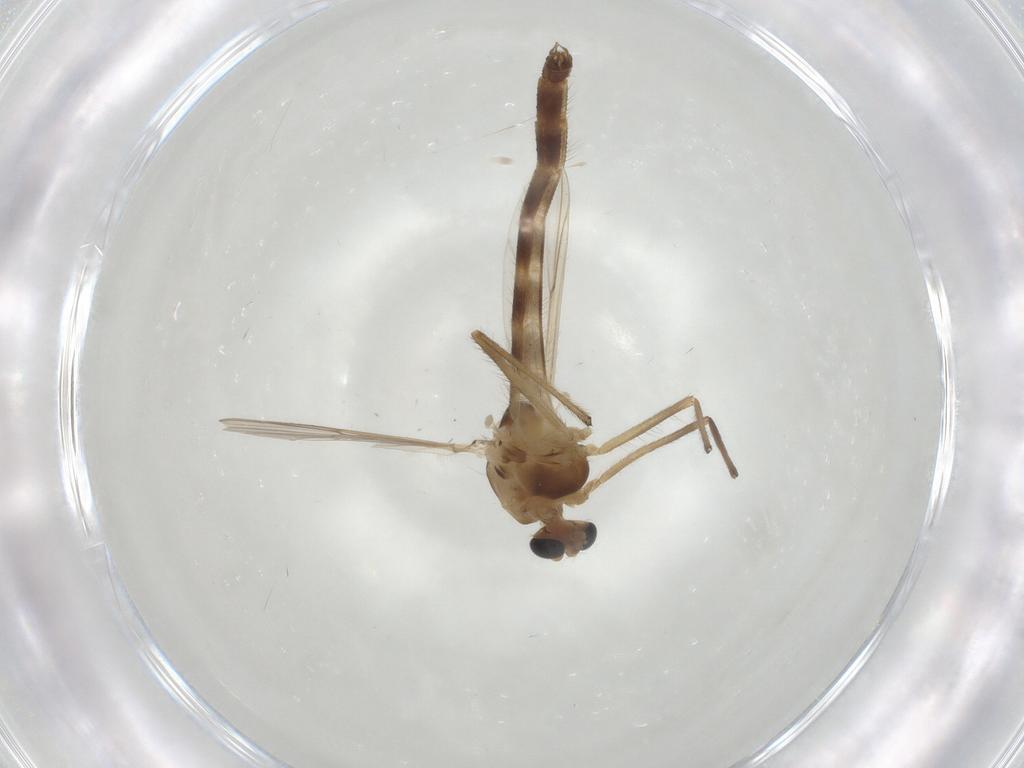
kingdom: Animalia
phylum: Arthropoda
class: Insecta
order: Diptera
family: Chironomidae
